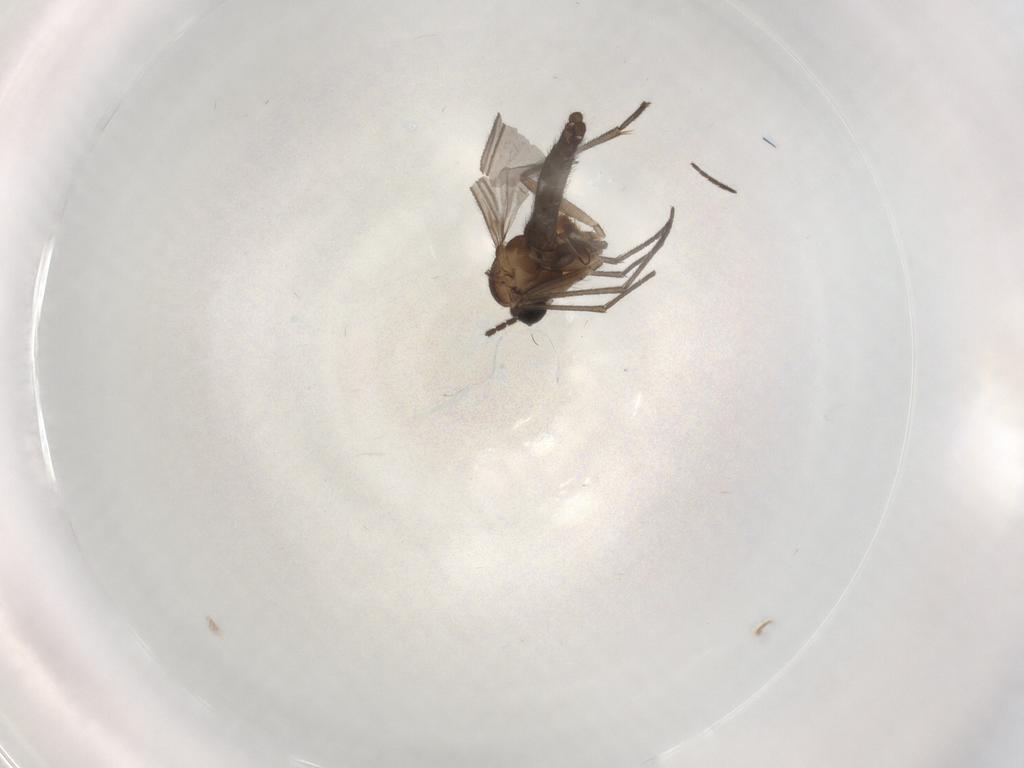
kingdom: Animalia
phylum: Arthropoda
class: Insecta
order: Diptera
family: Sciaridae
